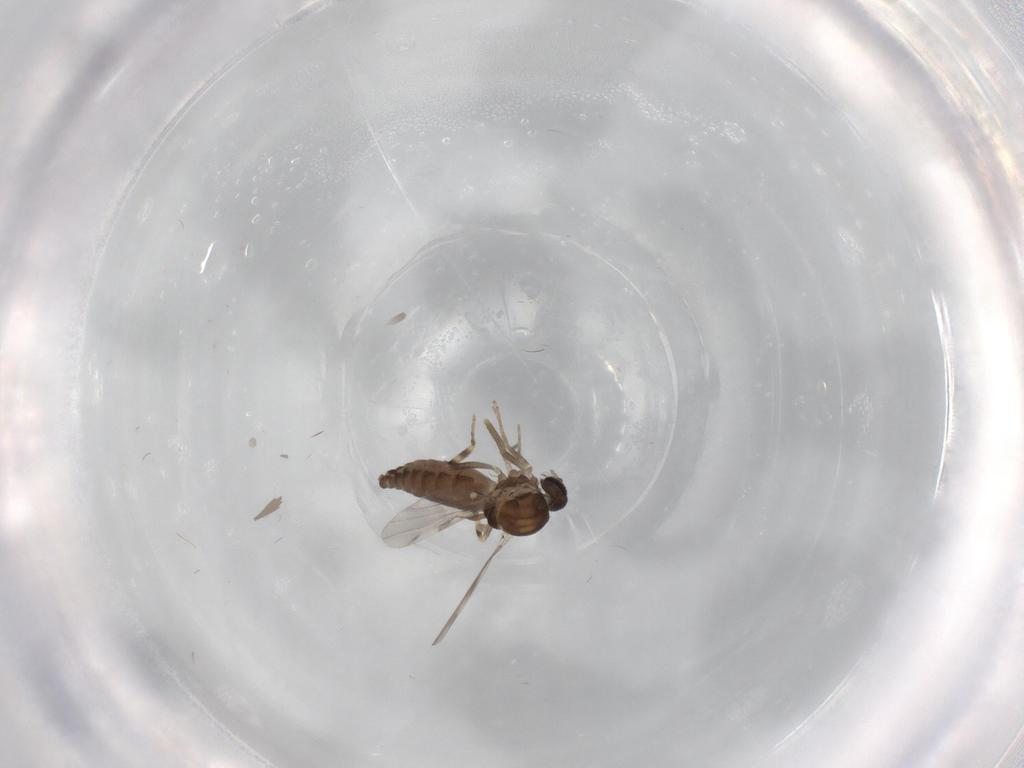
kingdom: Animalia
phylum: Arthropoda
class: Insecta
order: Diptera
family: Ceratopogonidae
